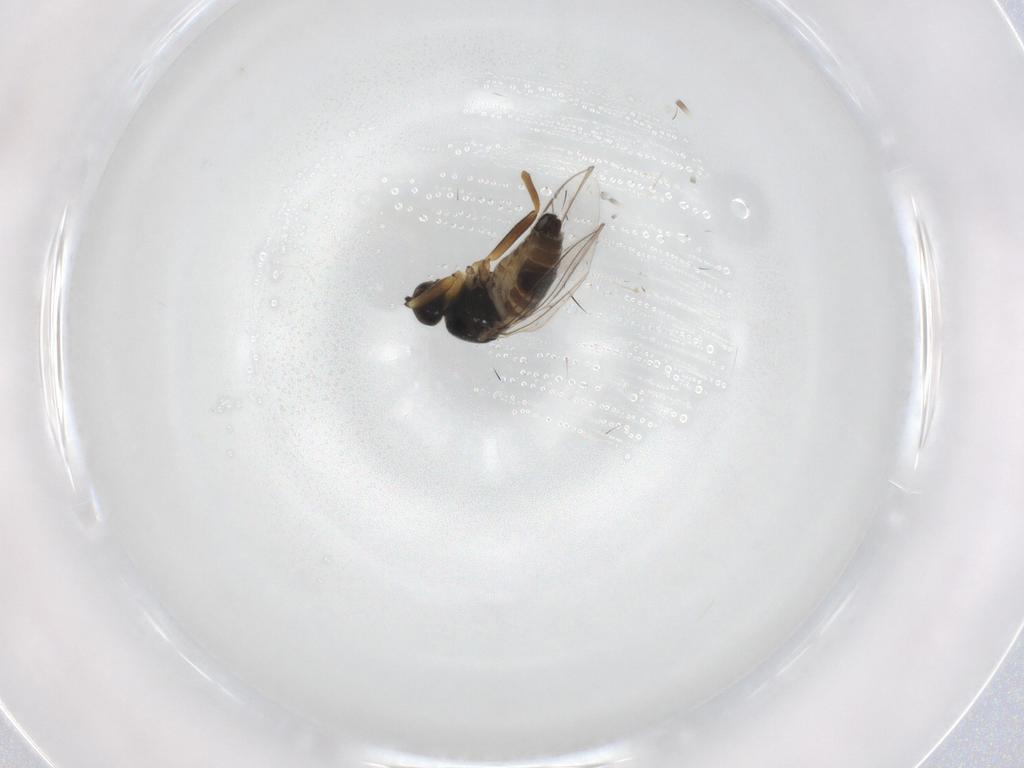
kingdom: Animalia
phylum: Arthropoda
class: Insecta
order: Diptera
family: Hybotidae
